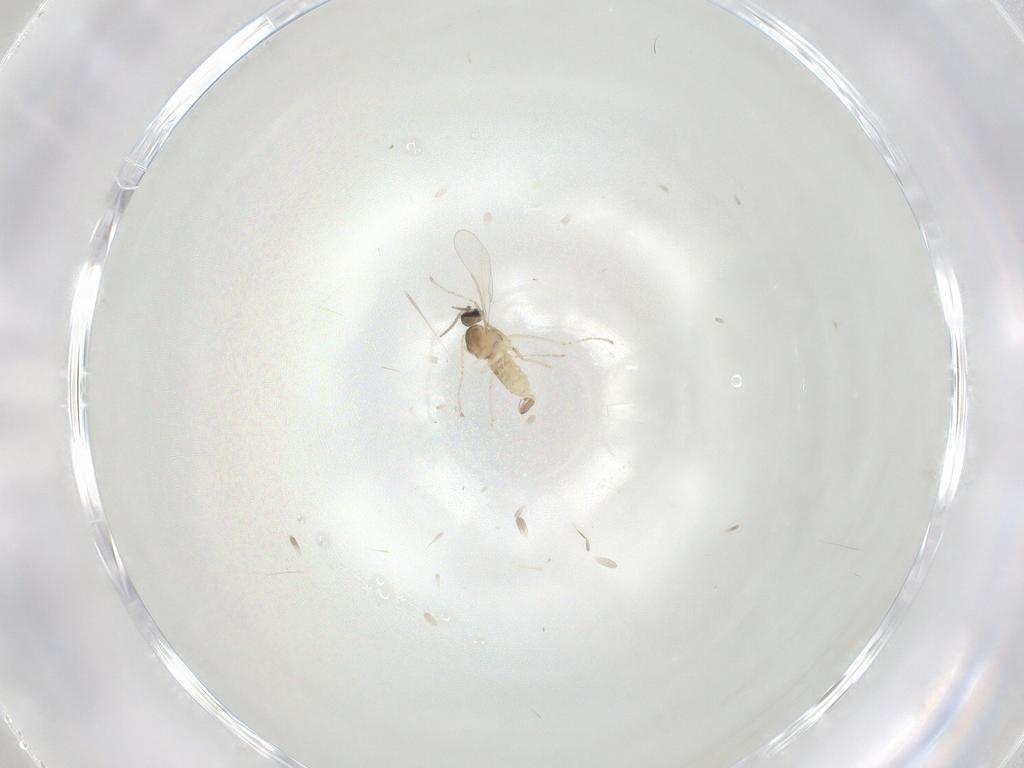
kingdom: Animalia
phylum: Arthropoda
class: Insecta
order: Diptera
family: Cecidomyiidae
